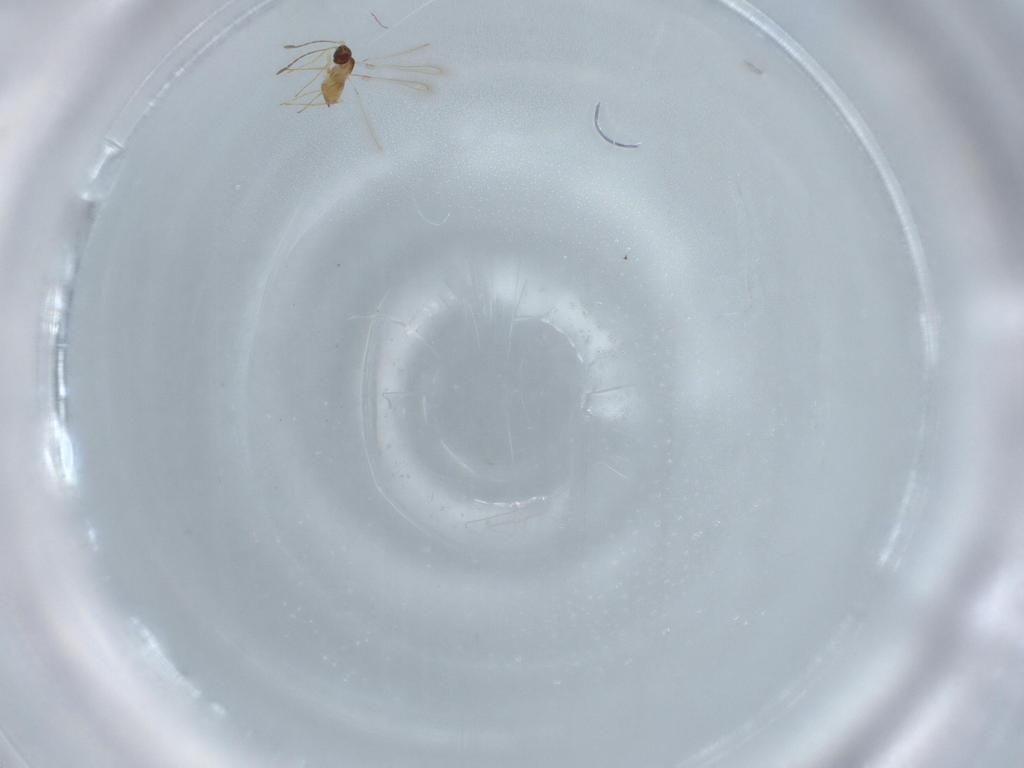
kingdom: Animalia
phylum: Arthropoda
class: Insecta
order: Hymenoptera
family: Mymaridae
